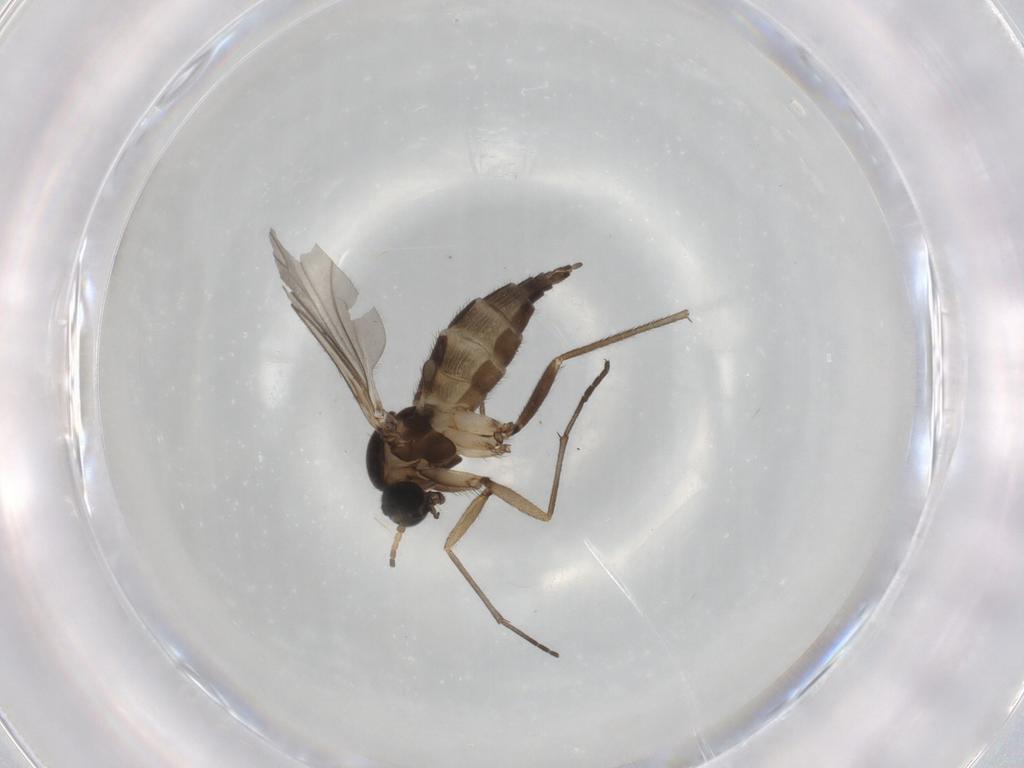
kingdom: Animalia
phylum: Arthropoda
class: Insecta
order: Diptera
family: Sciaridae
